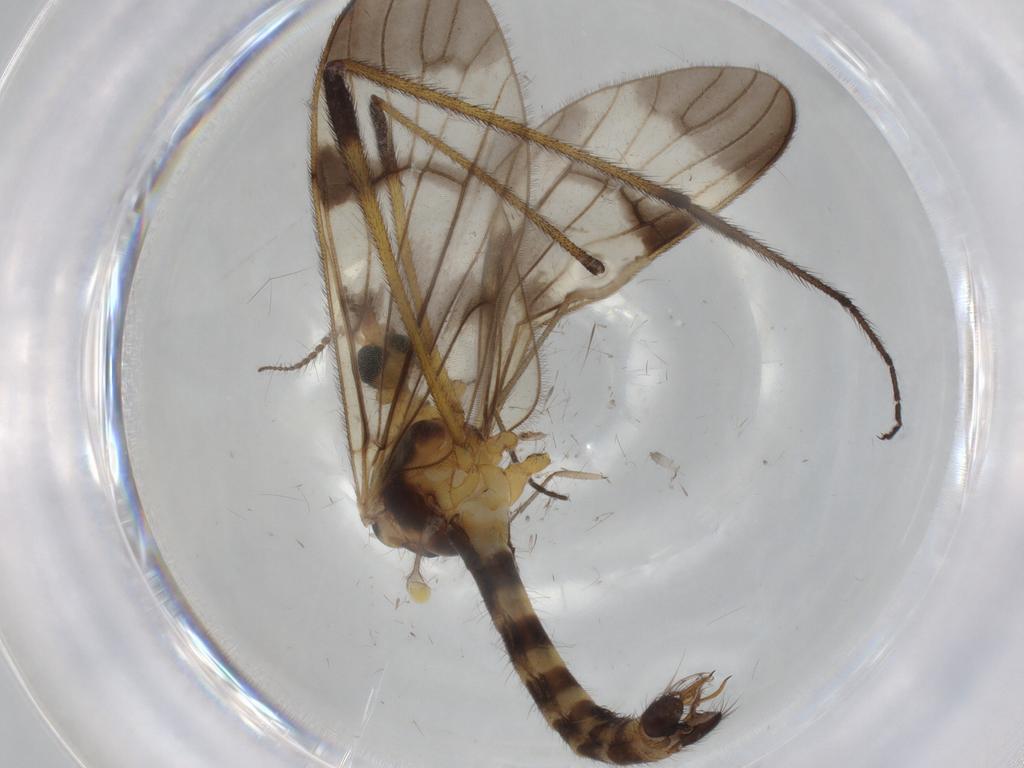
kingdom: Animalia
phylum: Arthropoda
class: Insecta
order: Diptera
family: Limoniidae
